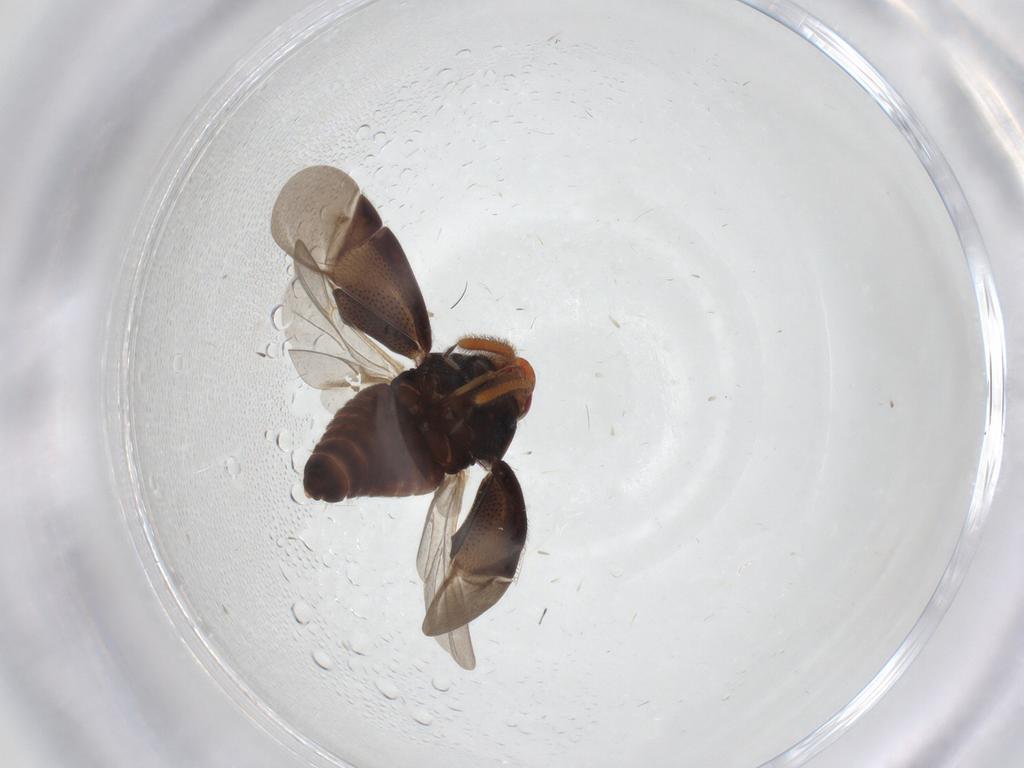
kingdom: Animalia
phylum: Arthropoda
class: Insecta
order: Hemiptera
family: Miridae
